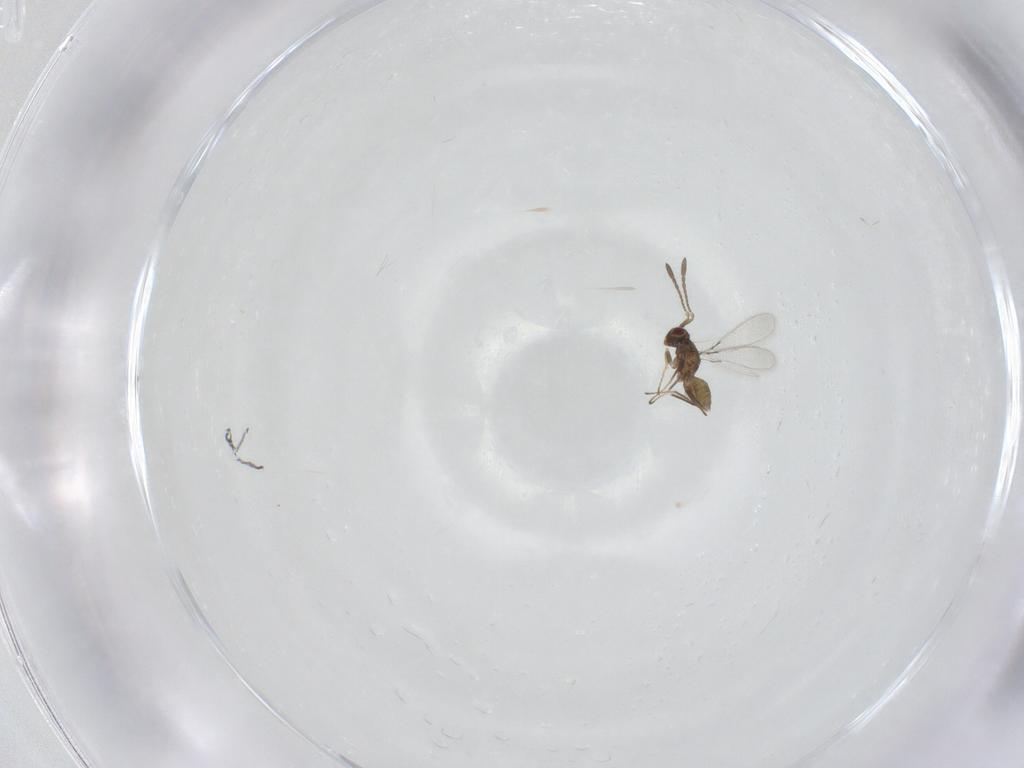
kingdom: Animalia
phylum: Arthropoda
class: Insecta
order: Hymenoptera
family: Mymaridae
